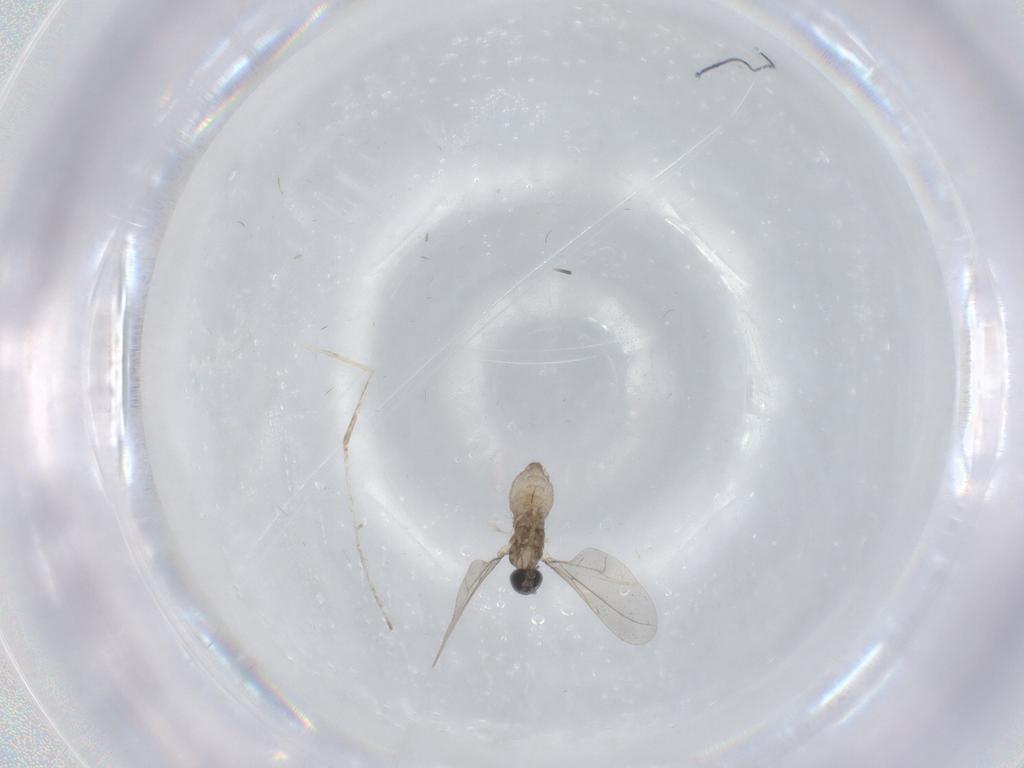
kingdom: Animalia
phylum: Arthropoda
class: Insecta
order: Diptera
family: Cecidomyiidae
